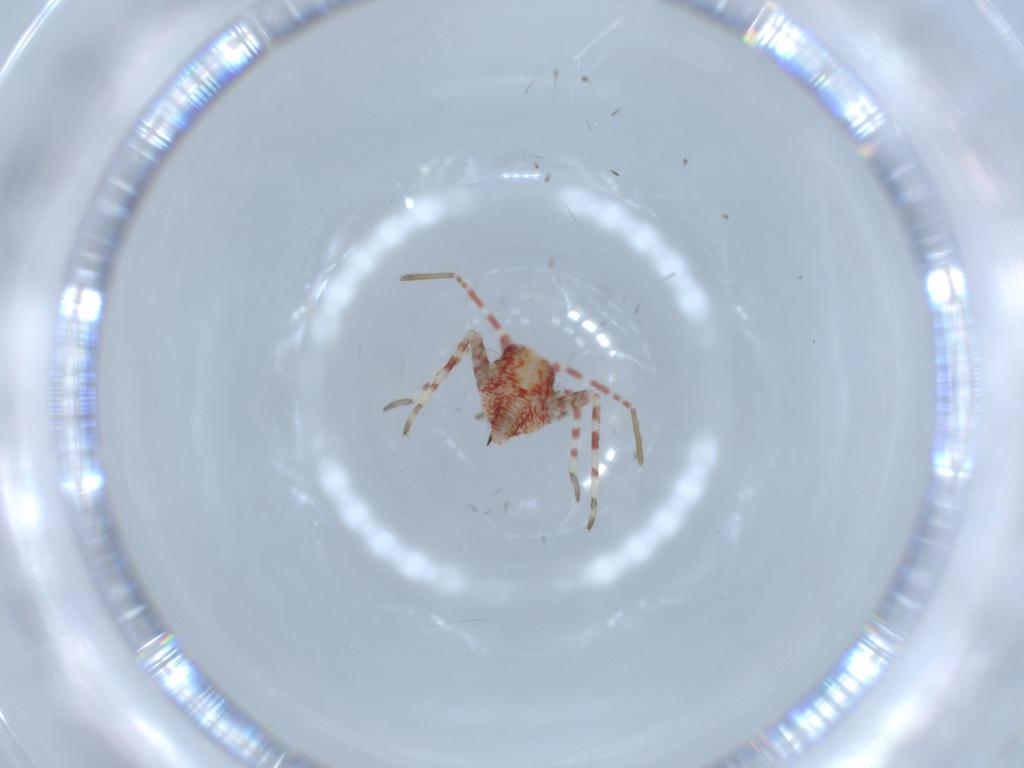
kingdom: Animalia
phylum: Arthropoda
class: Insecta
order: Hemiptera
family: Miridae
